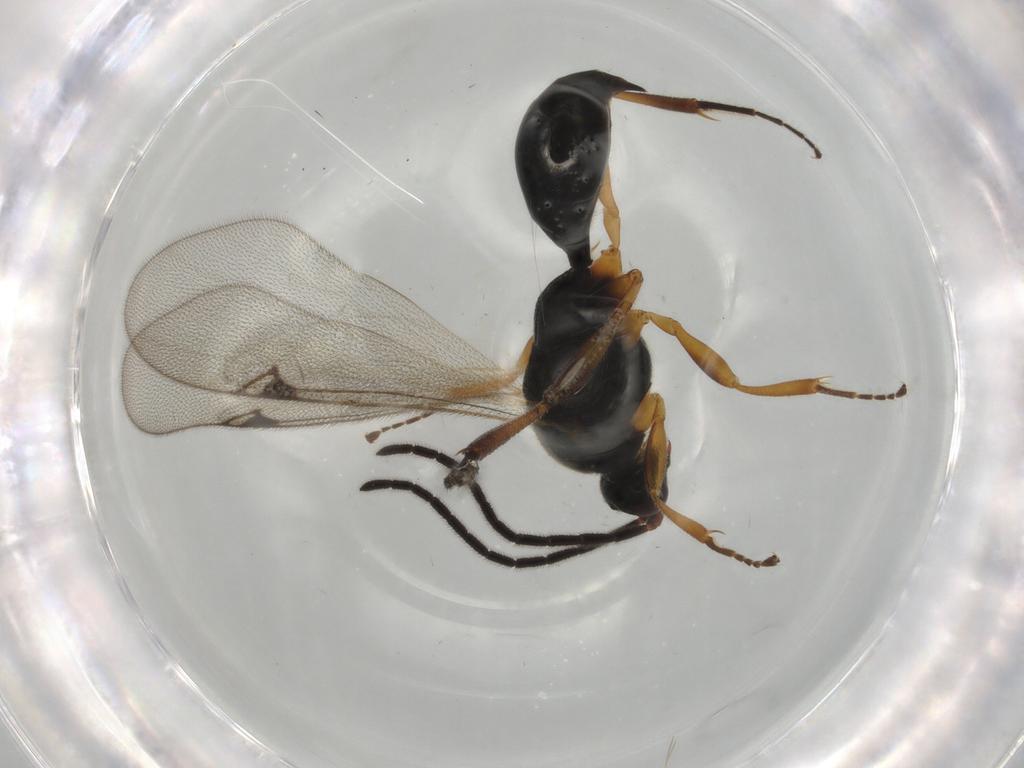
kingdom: Animalia
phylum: Arthropoda
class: Insecta
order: Hymenoptera
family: Proctotrupidae
